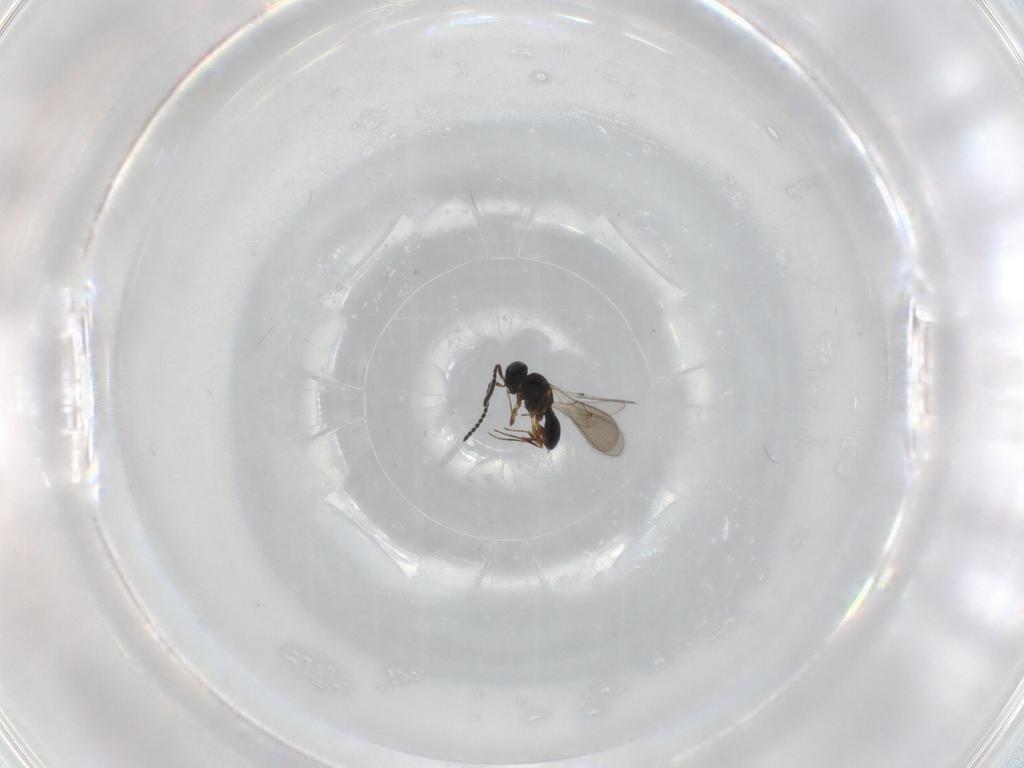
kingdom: Animalia
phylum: Arthropoda
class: Insecta
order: Hymenoptera
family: Scelionidae
